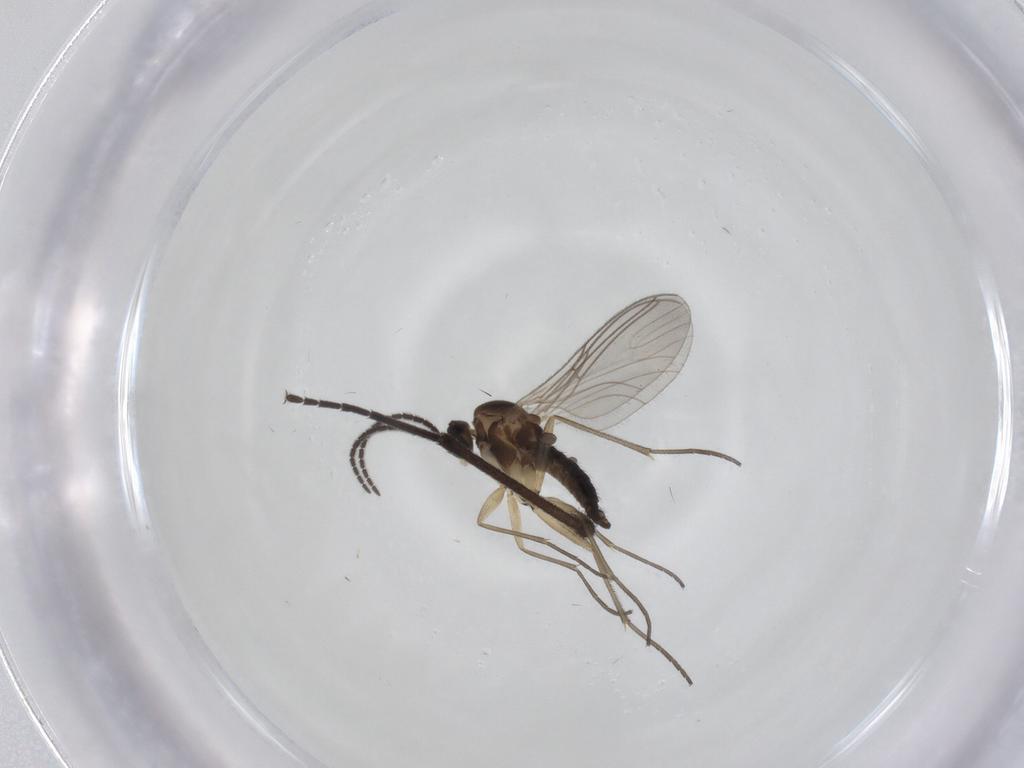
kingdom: Animalia
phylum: Arthropoda
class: Insecta
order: Diptera
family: Sciaridae
